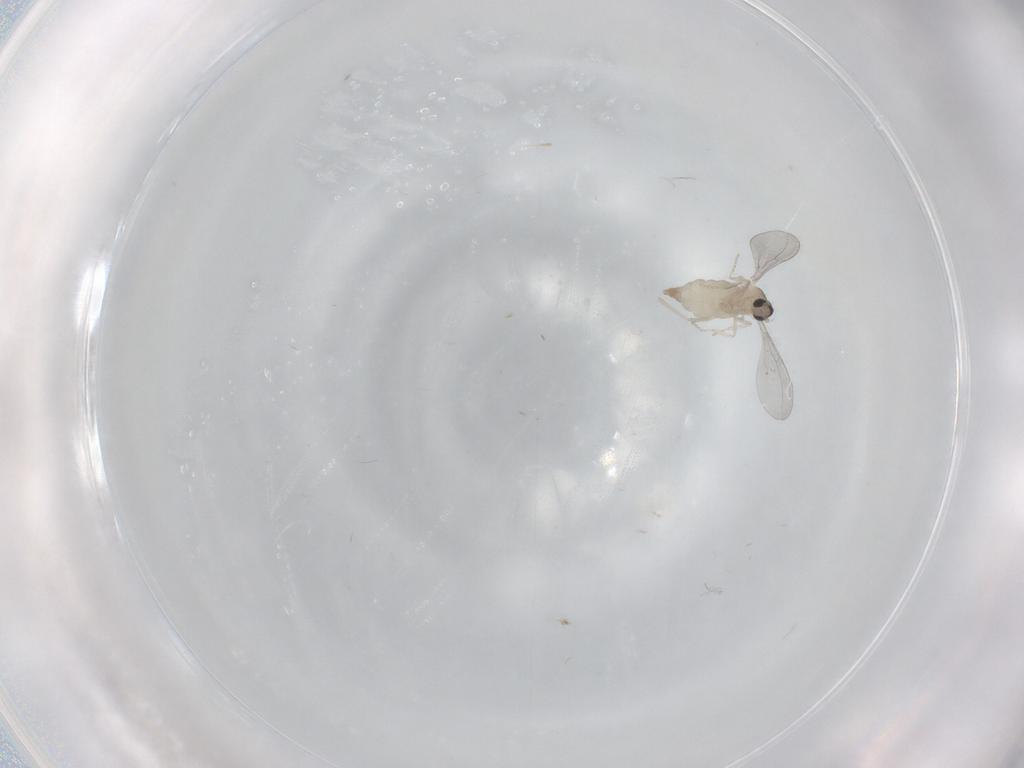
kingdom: Animalia
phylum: Arthropoda
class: Insecta
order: Diptera
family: Cecidomyiidae
